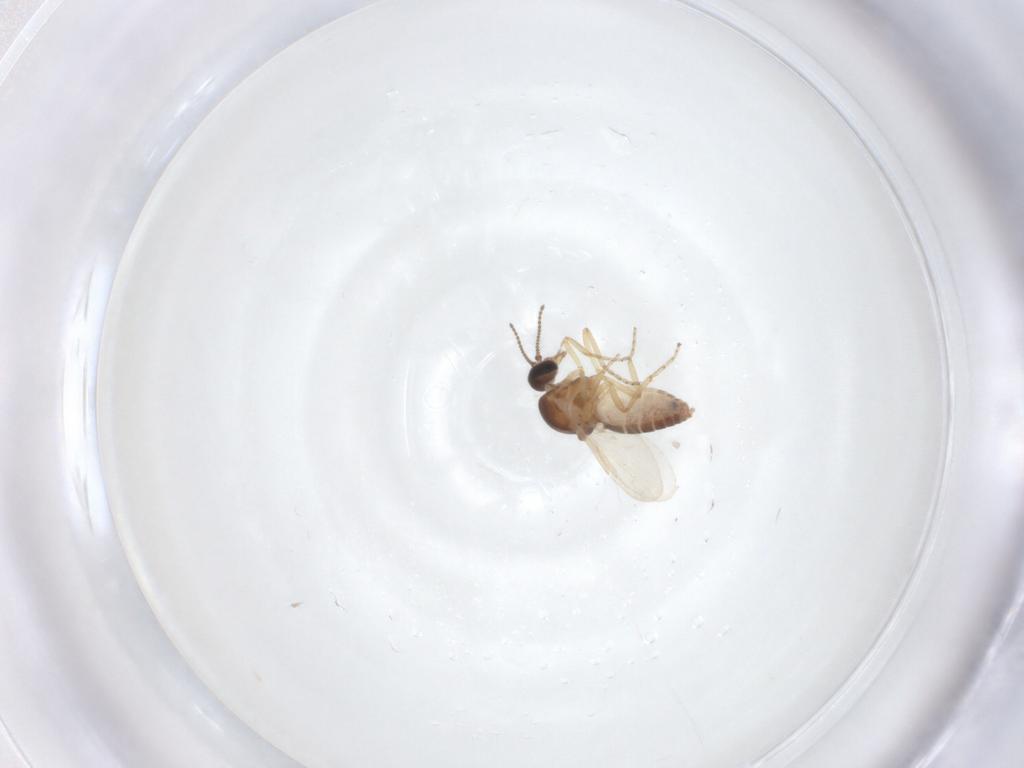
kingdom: Animalia
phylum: Arthropoda
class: Insecta
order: Diptera
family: Ceratopogonidae
